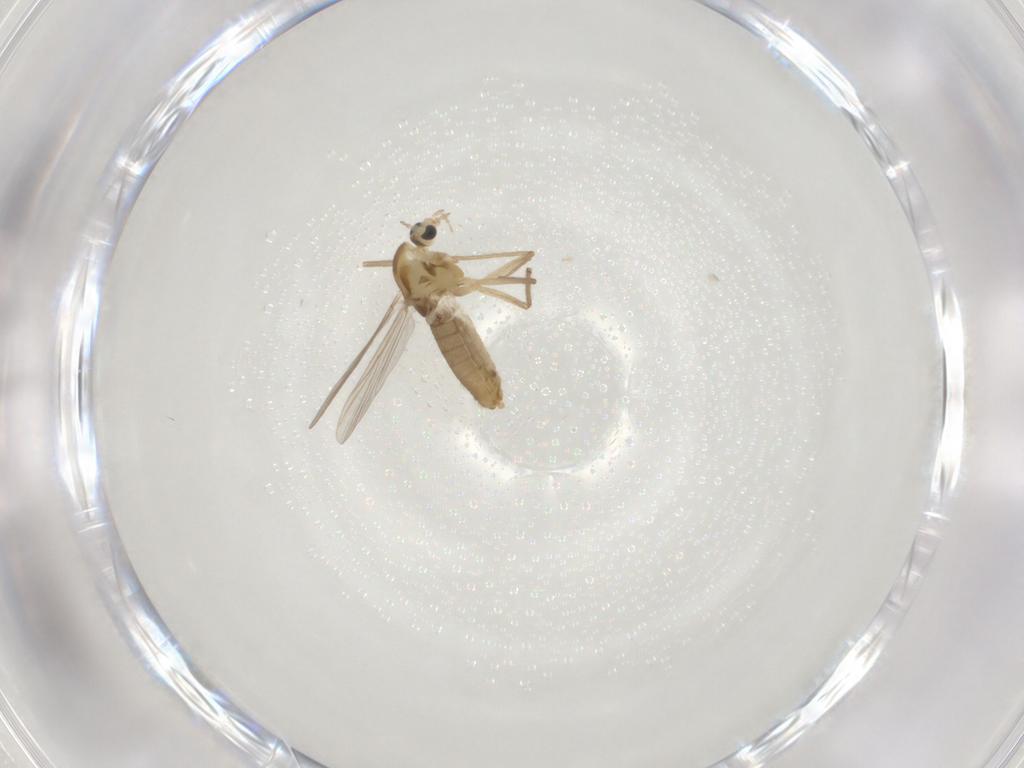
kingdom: Animalia
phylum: Arthropoda
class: Insecta
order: Diptera
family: Chironomidae
